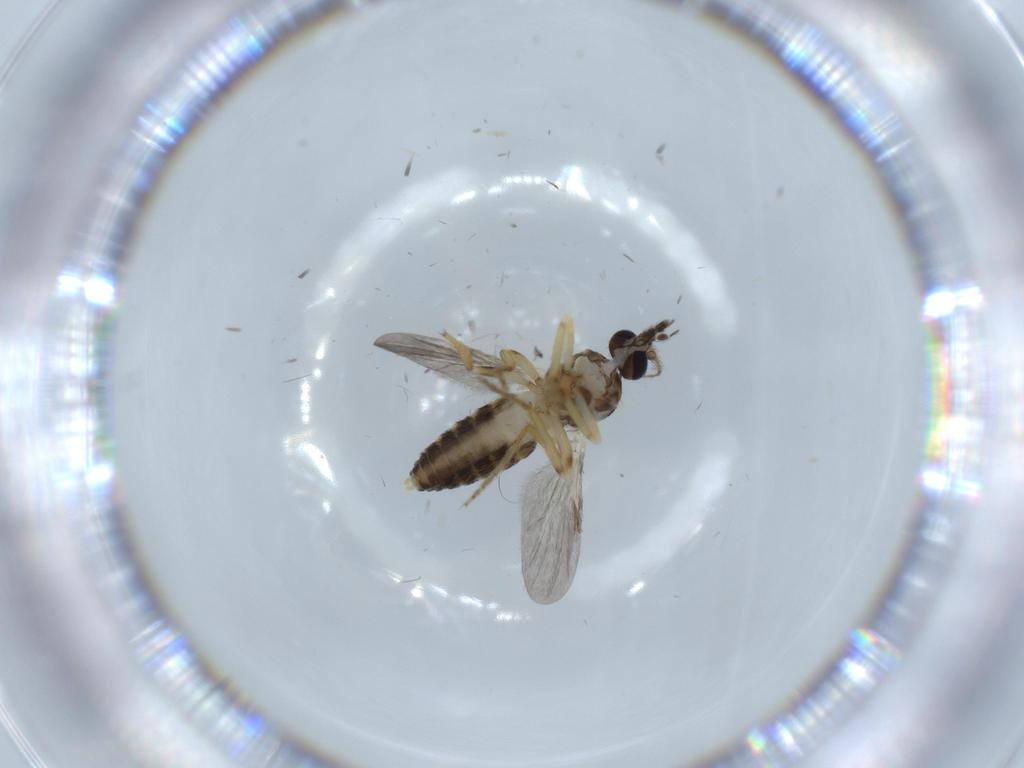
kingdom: Animalia
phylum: Arthropoda
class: Insecta
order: Diptera
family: Ceratopogonidae
